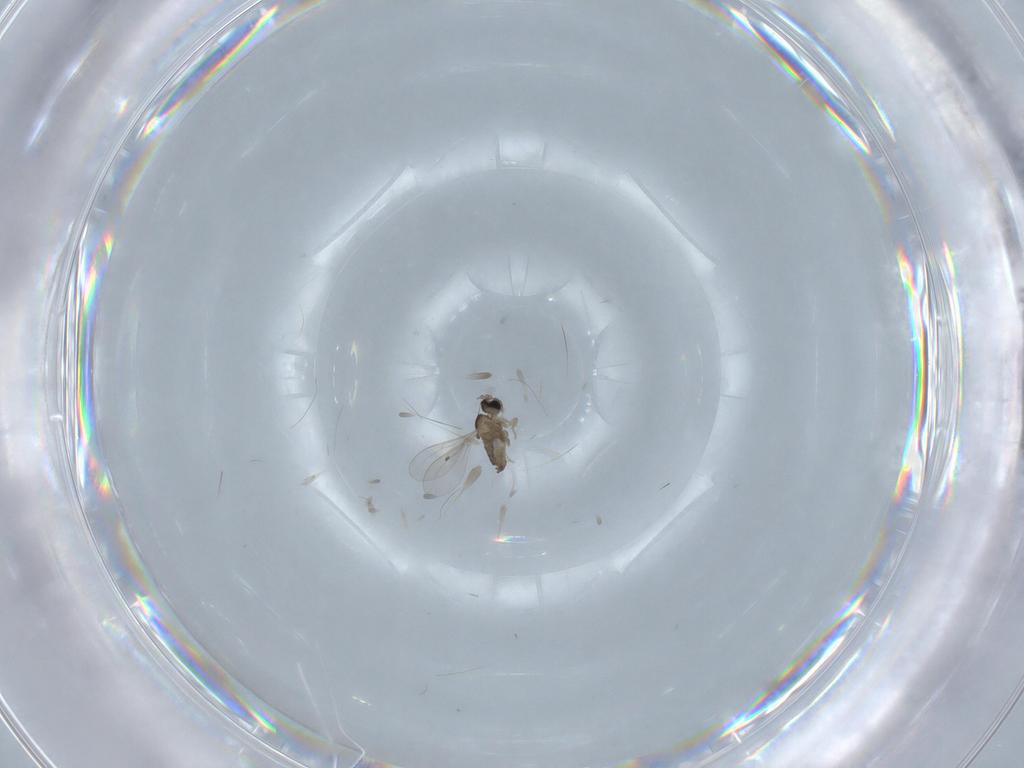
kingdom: Animalia
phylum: Arthropoda
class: Insecta
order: Diptera
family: Cecidomyiidae
